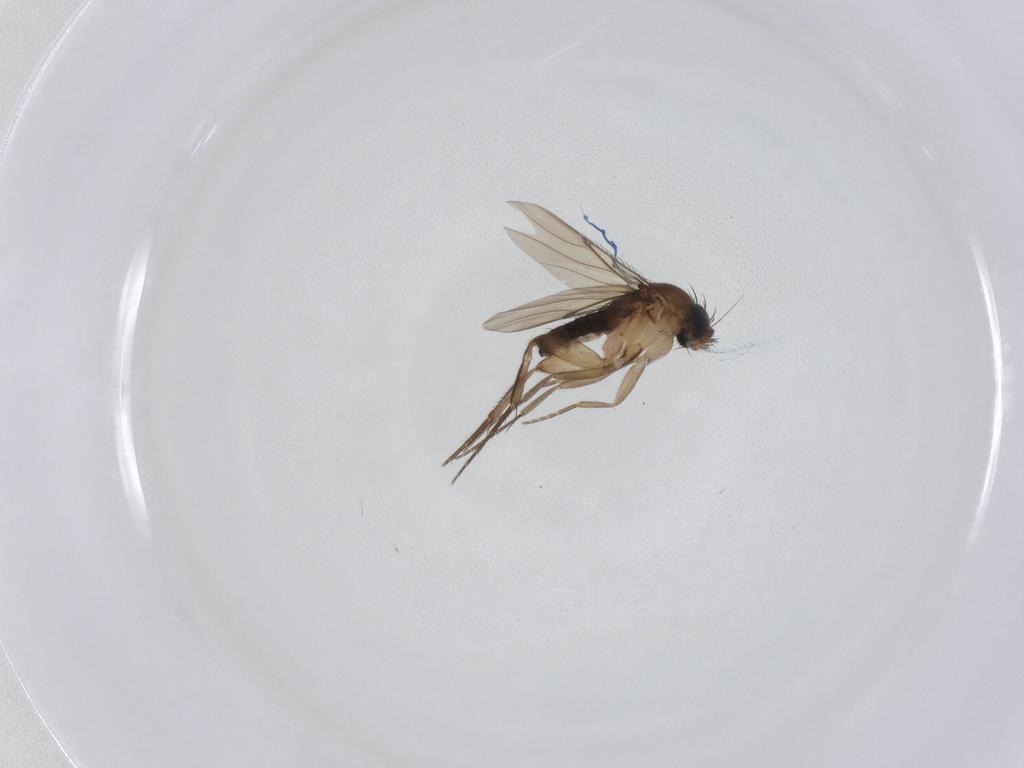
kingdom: Animalia
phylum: Arthropoda
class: Insecta
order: Diptera
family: Phoridae
